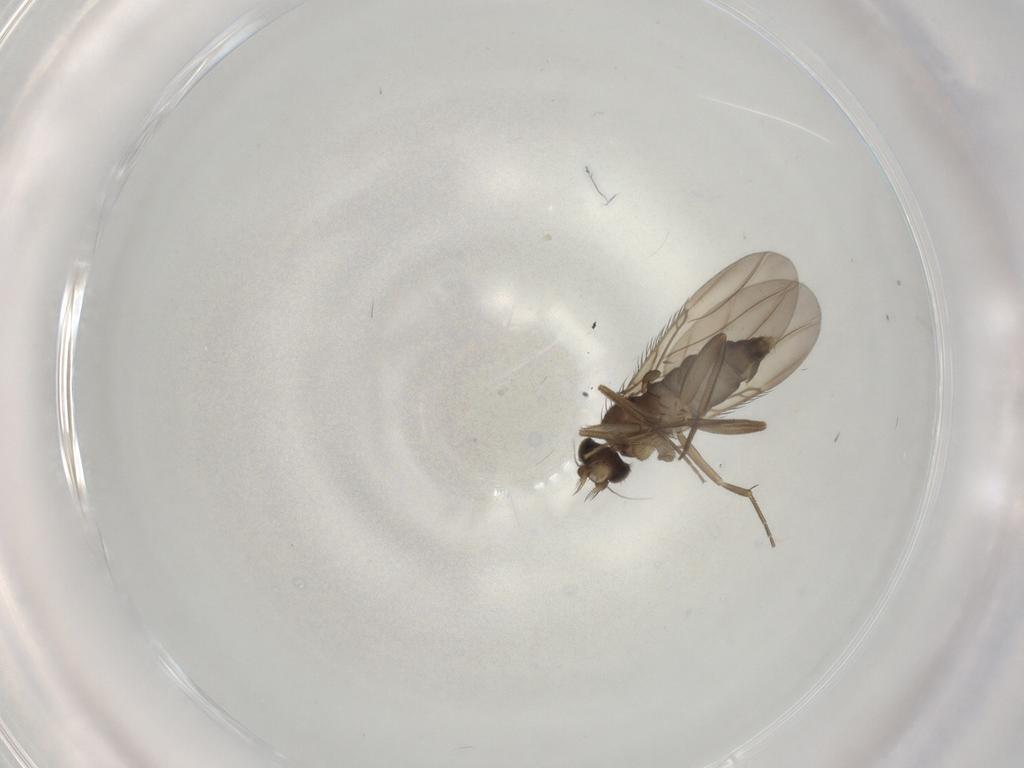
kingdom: Animalia
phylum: Arthropoda
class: Insecta
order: Diptera
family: Phoridae
